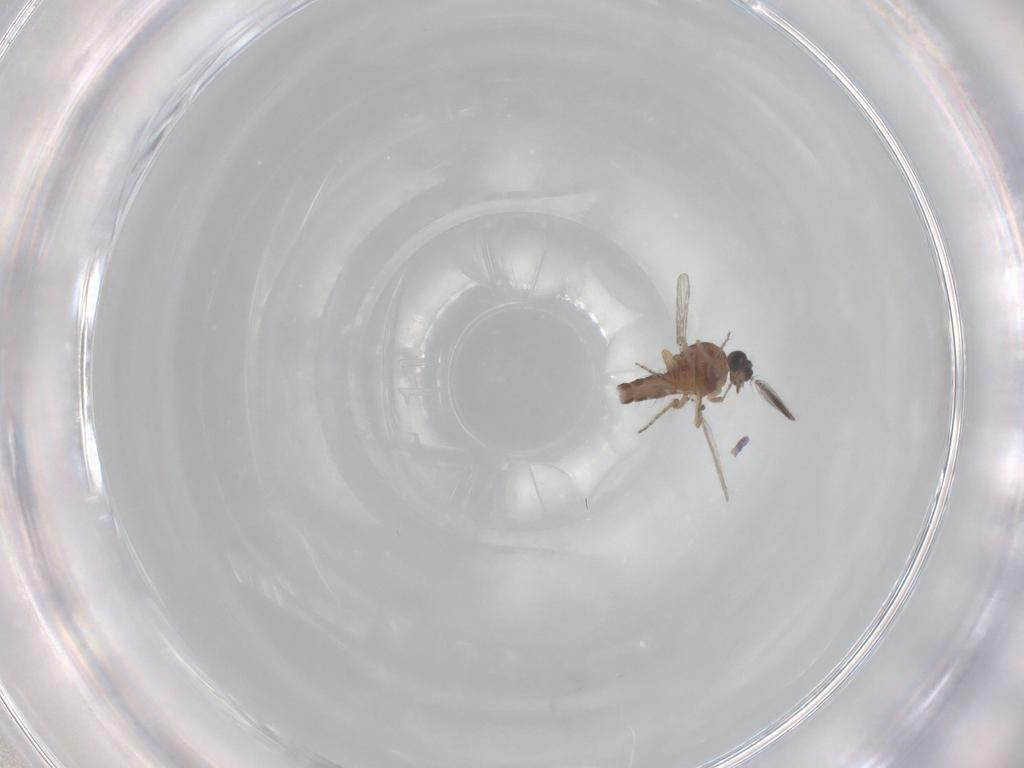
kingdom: Animalia
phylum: Arthropoda
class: Insecta
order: Diptera
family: Ceratopogonidae
